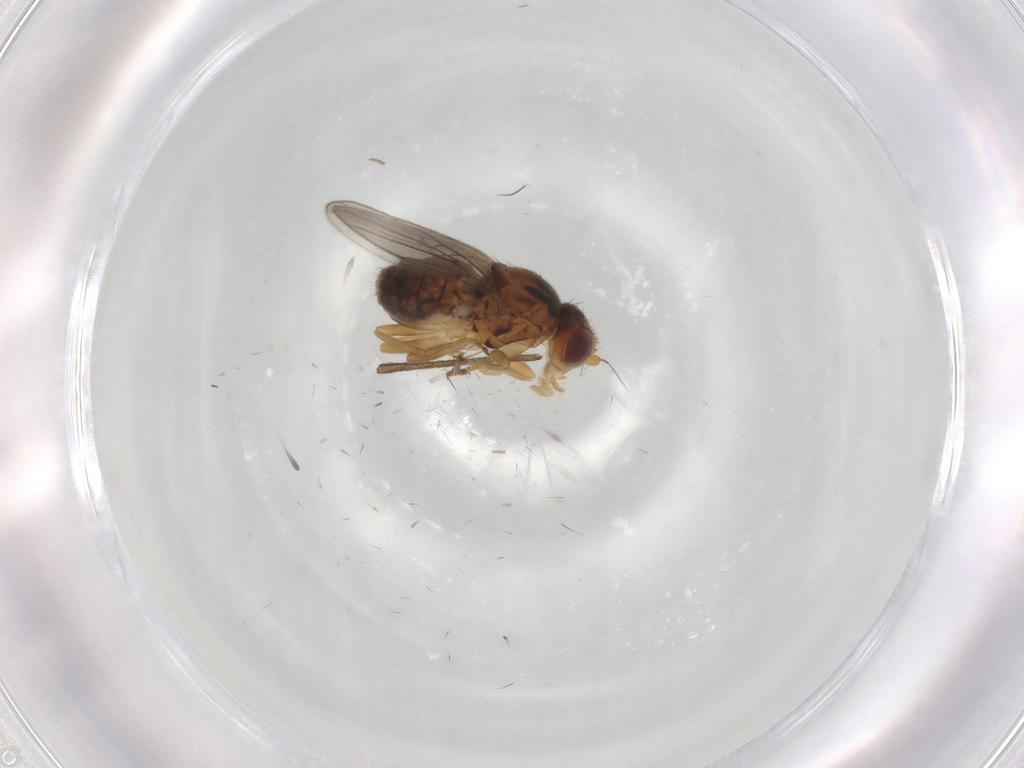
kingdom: Animalia
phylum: Arthropoda
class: Insecta
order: Diptera
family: Chloropidae
